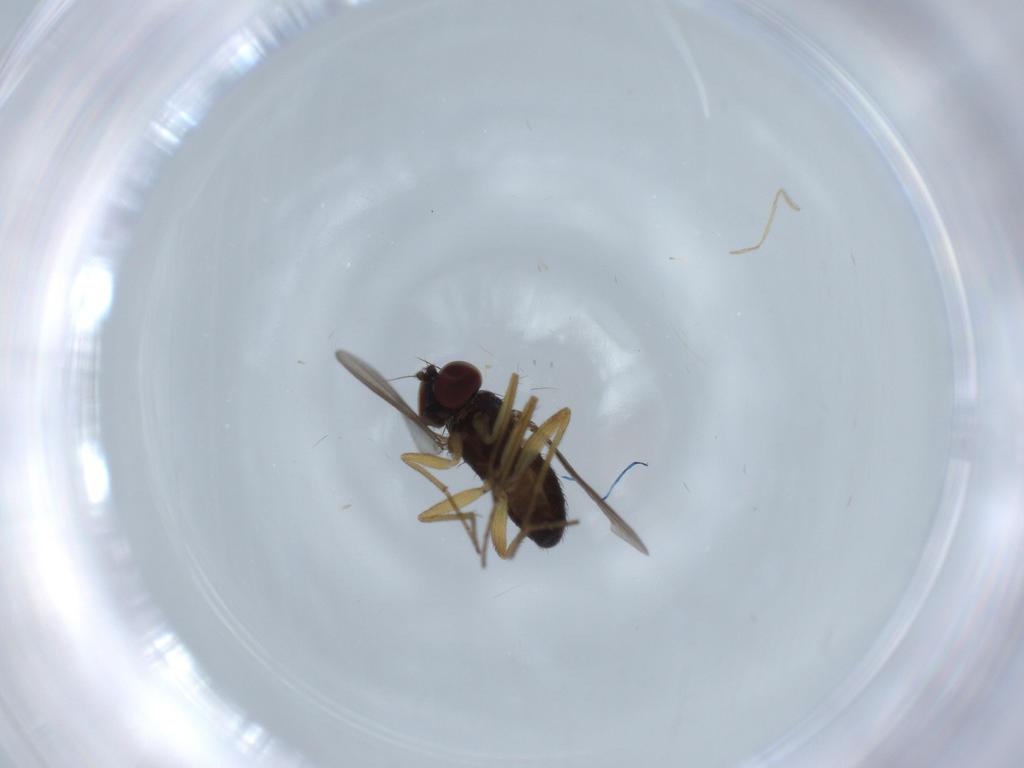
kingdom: Animalia
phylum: Arthropoda
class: Insecta
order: Diptera
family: Dolichopodidae
